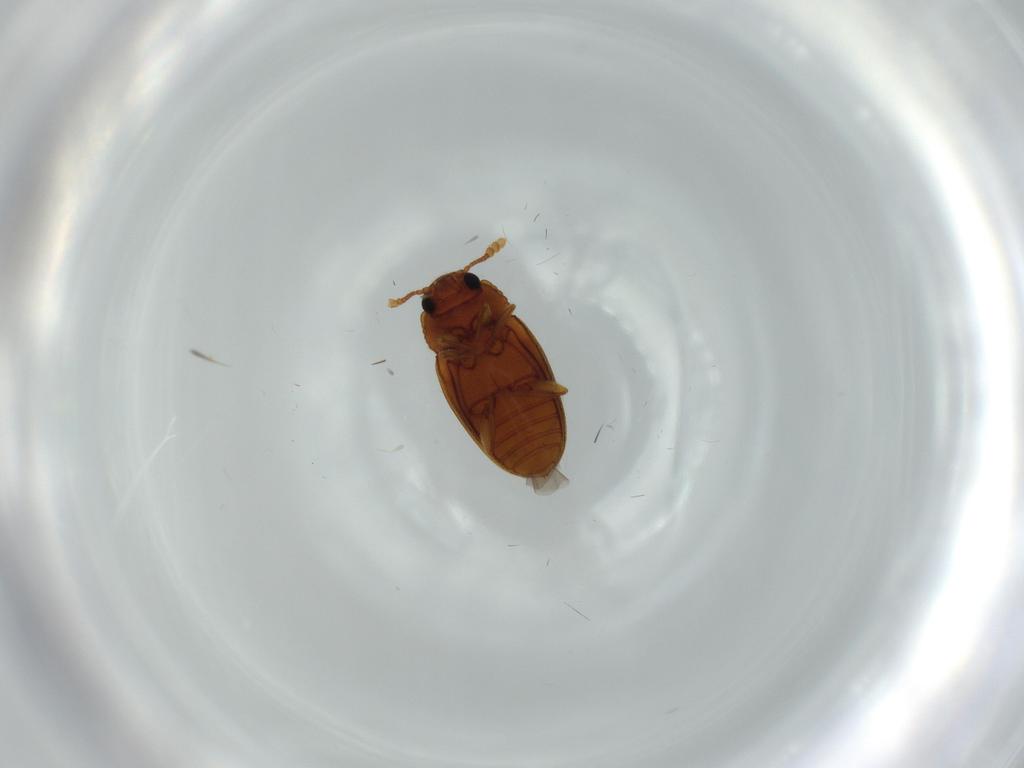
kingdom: Animalia
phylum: Arthropoda
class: Insecta
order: Coleoptera
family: Erotylidae
